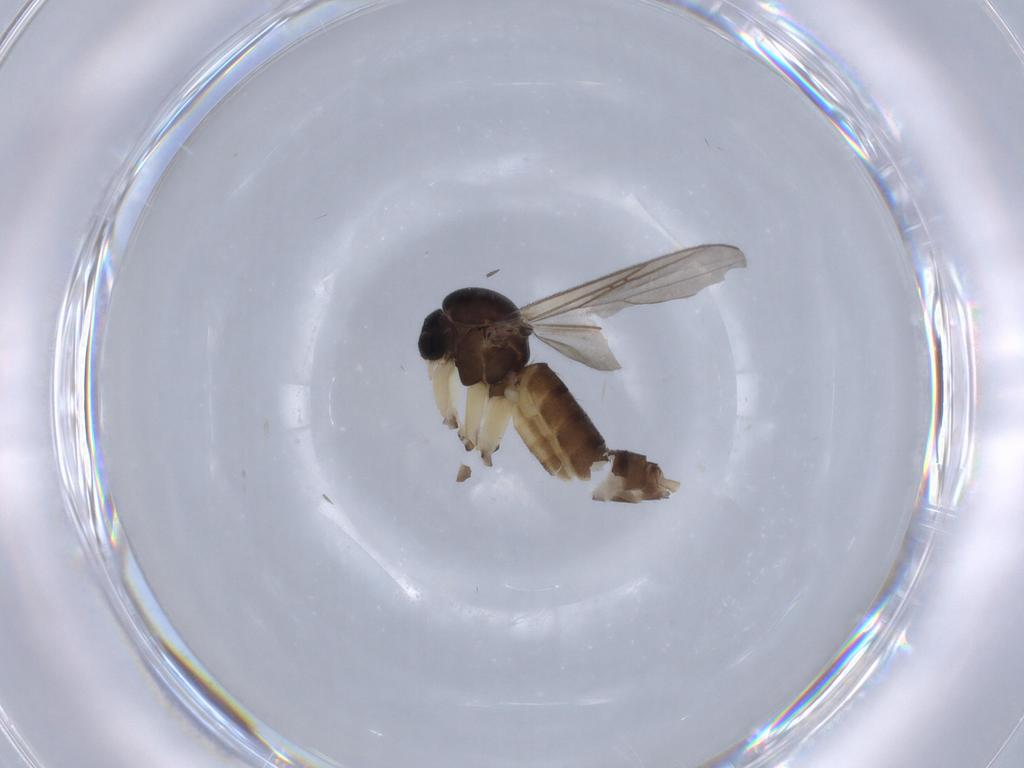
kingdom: Animalia
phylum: Arthropoda
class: Insecta
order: Diptera
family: Mycetophilidae
